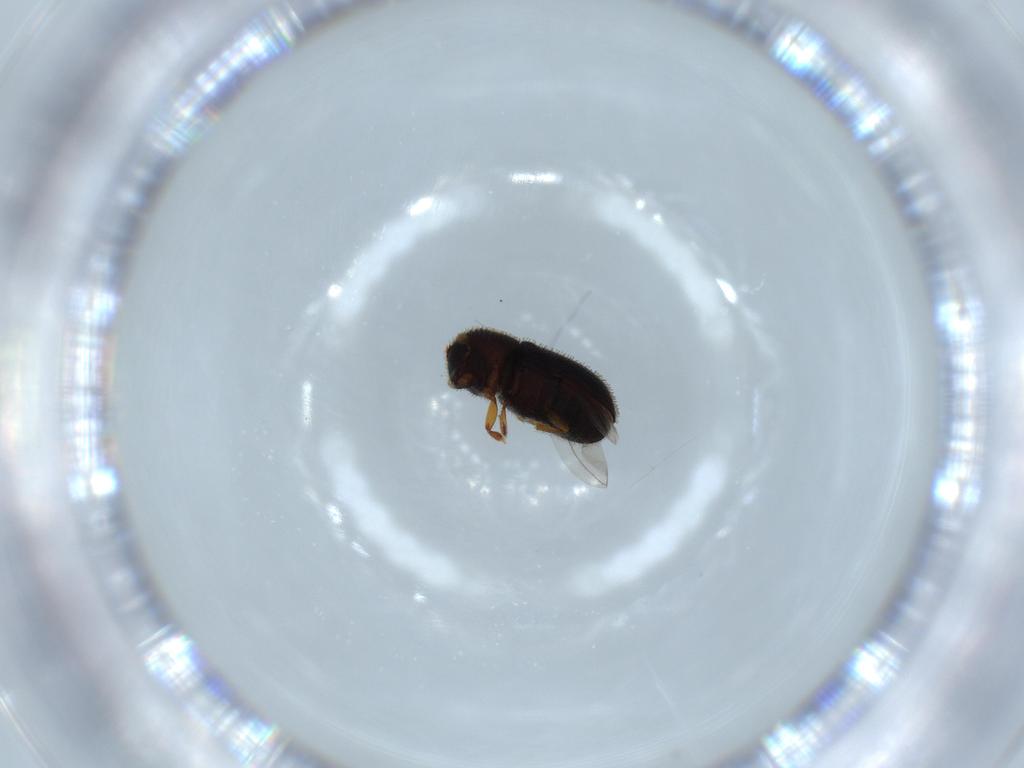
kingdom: Animalia
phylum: Arthropoda
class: Insecta
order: Coleoptera
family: Curculionidae
